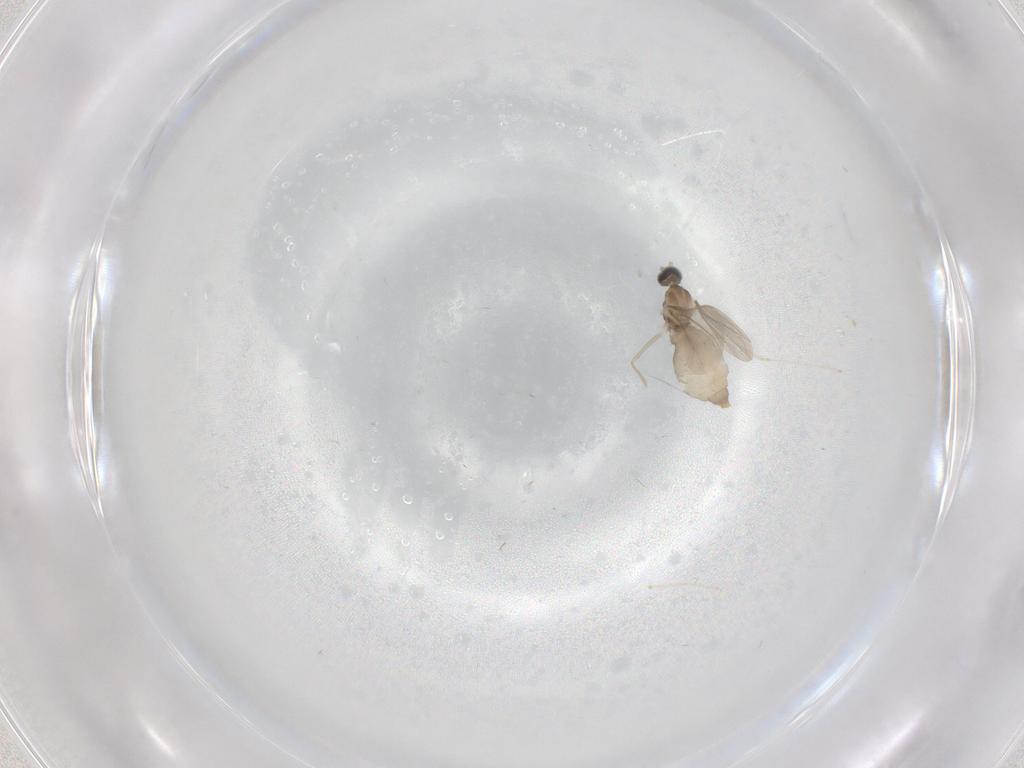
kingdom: Animalia
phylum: Arthropoda
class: Insecta
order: Diptera
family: Cecidomyiidae
